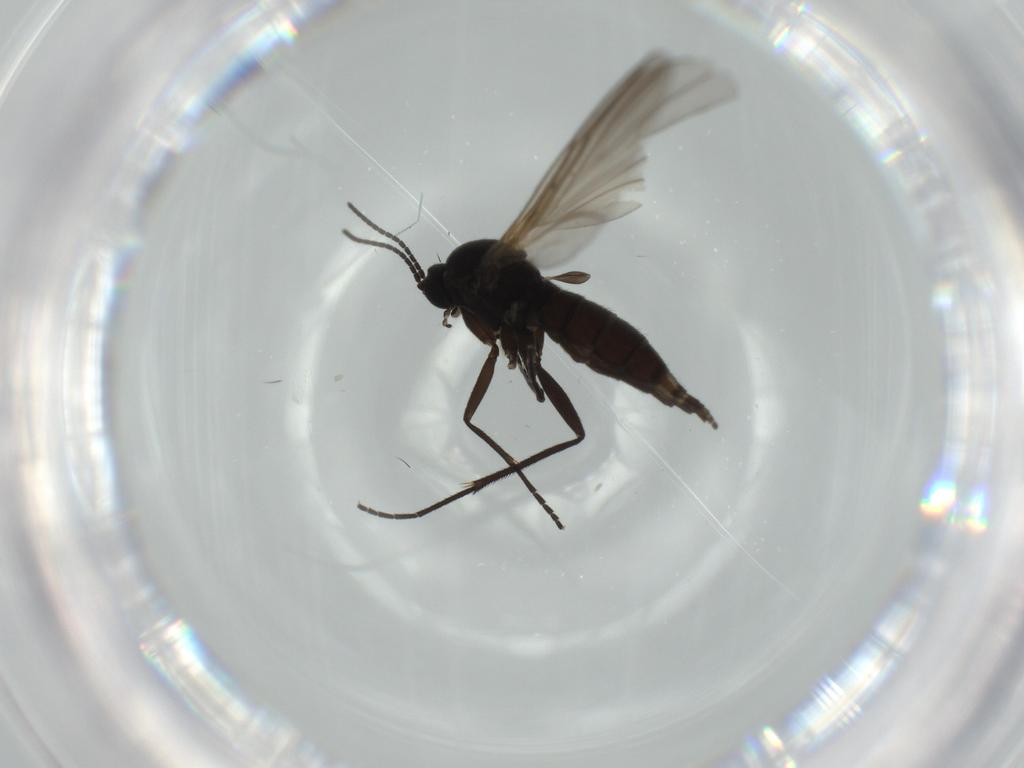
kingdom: Animalia
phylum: Arthropoda
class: Insecta
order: Diptera
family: Sciaridae
